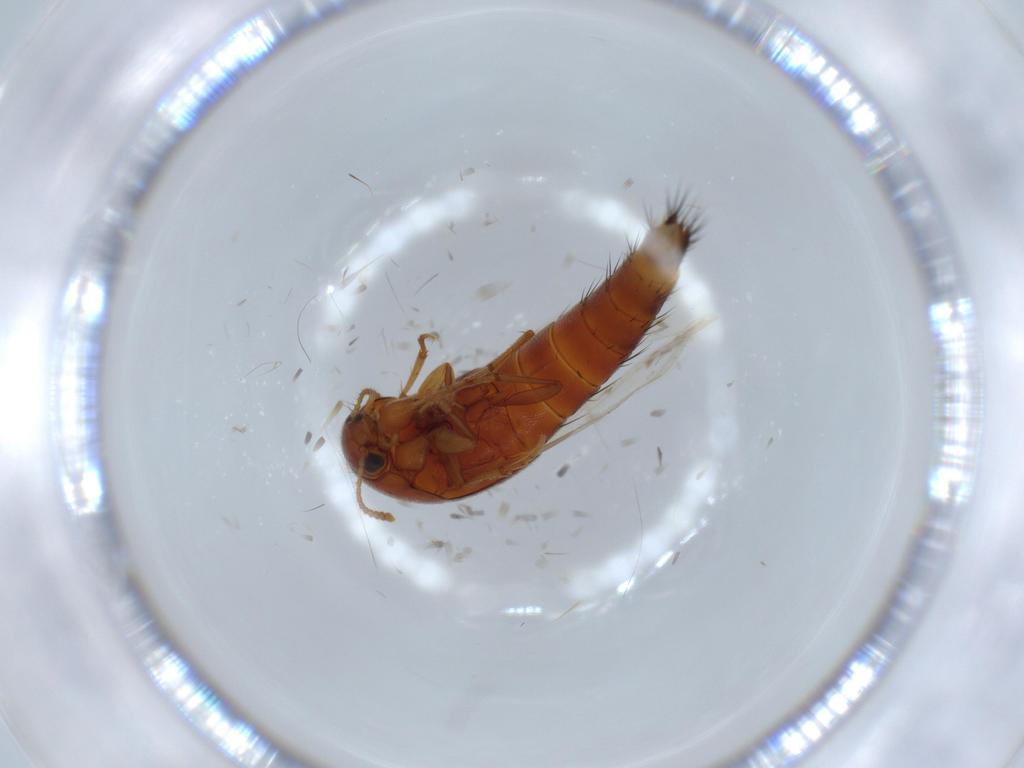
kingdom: Animalia
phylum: Arthropoda
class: Insecta
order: Coleoptera
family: Staphylinidae
